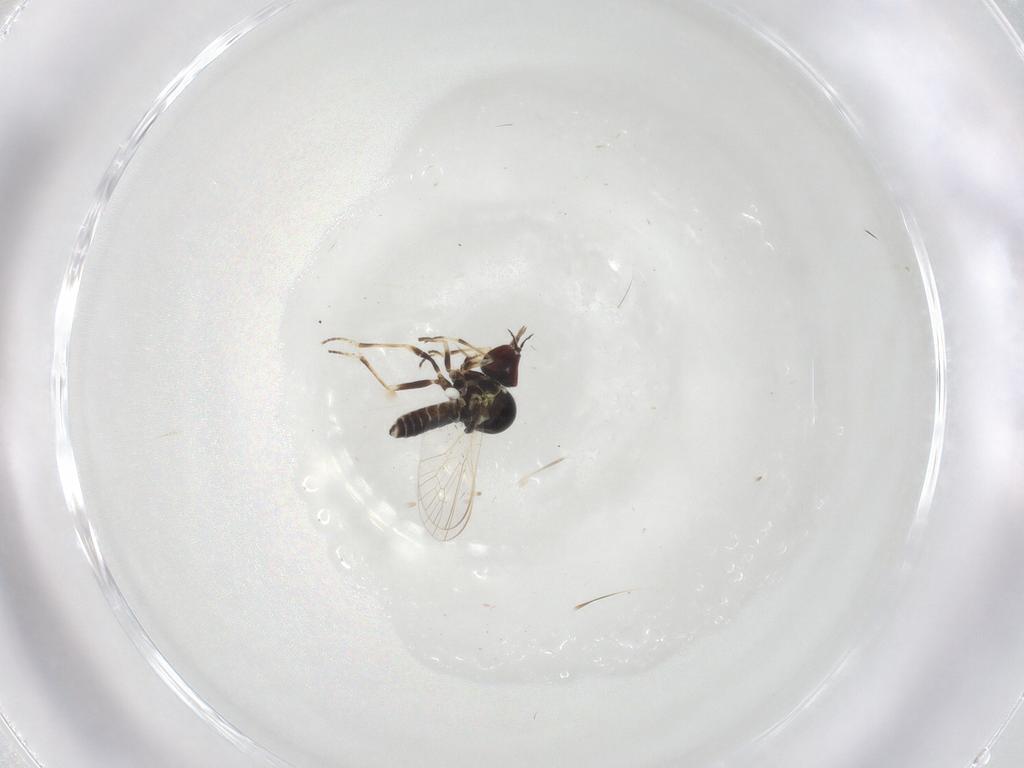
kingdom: Animalia
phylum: Arthropoda
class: Insecta
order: Diptera
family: Bombyliidae
